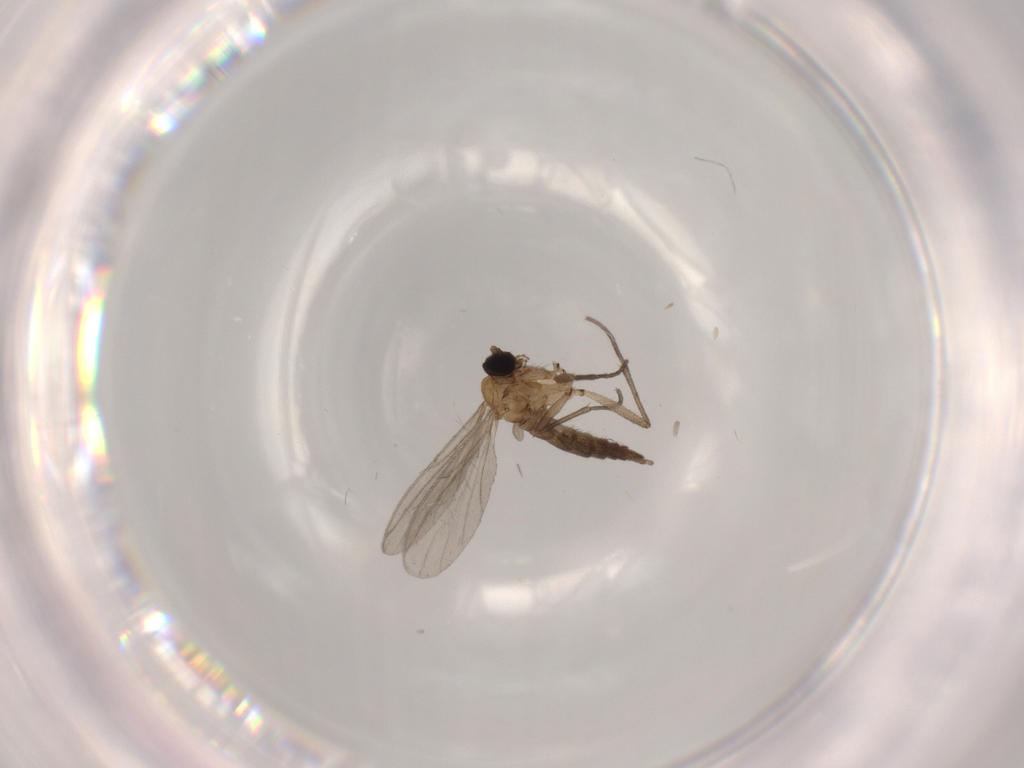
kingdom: Animalia
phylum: Arthropoda
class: Insecta
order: Diptera
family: Sciaridae
